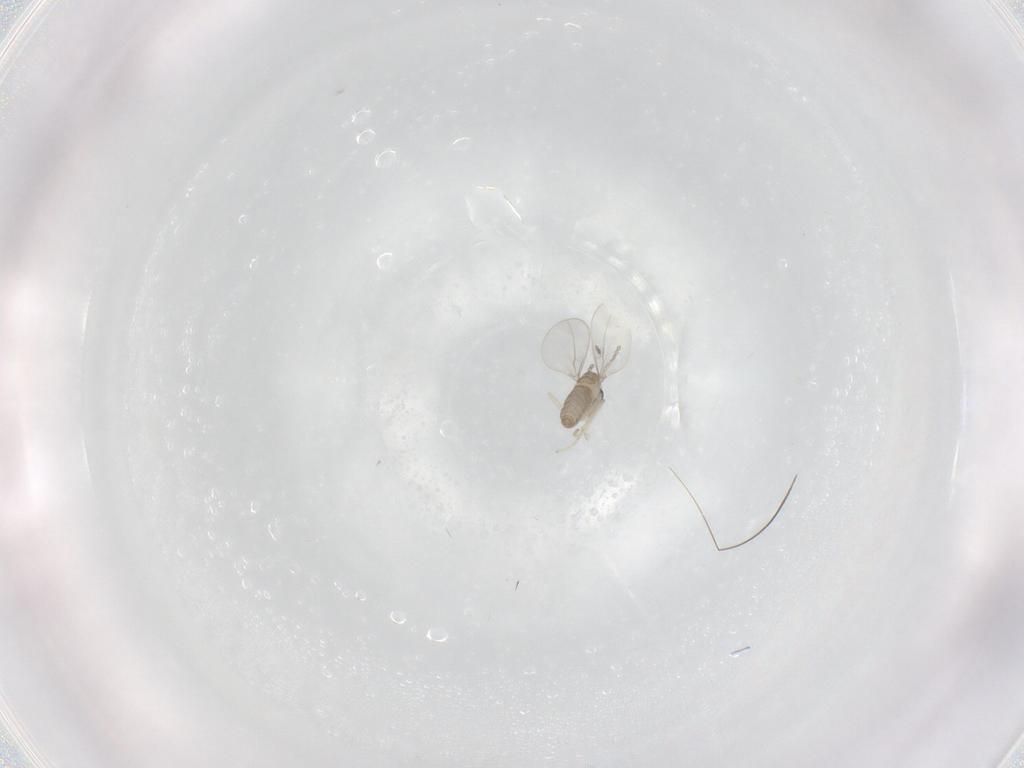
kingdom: Animalia
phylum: Arthropoda
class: Insecta
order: Diptera
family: Cecidomyiidae
